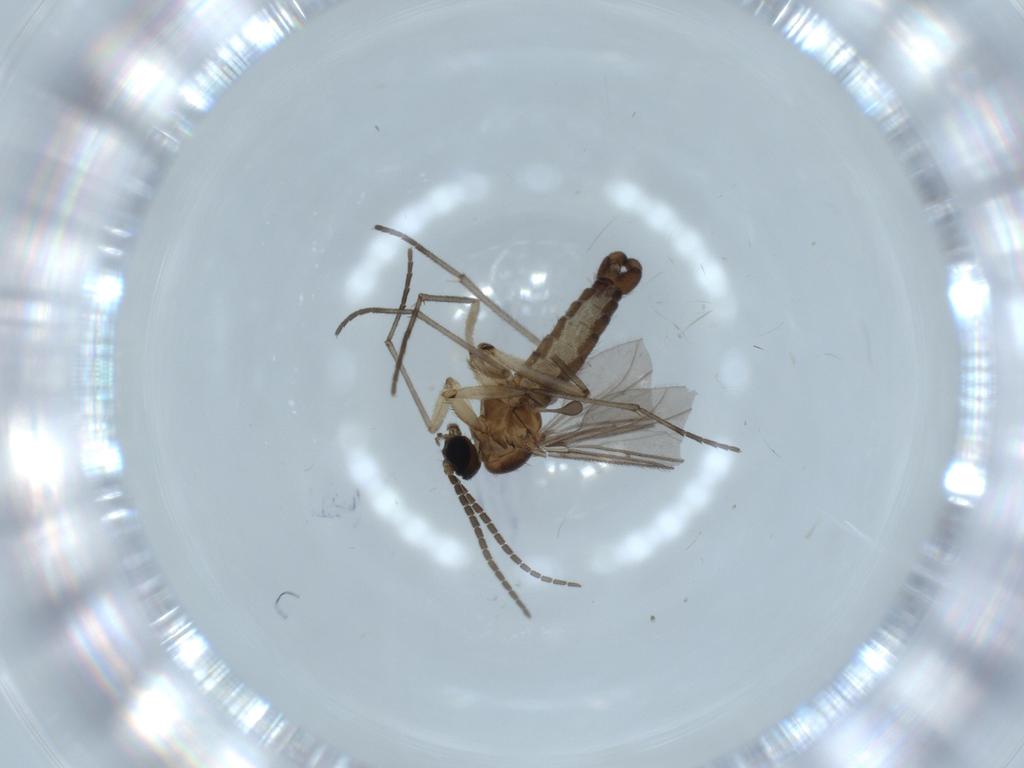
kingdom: Animalia
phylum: Arthropoda
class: Insecta
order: Diptera
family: Sciaridae
